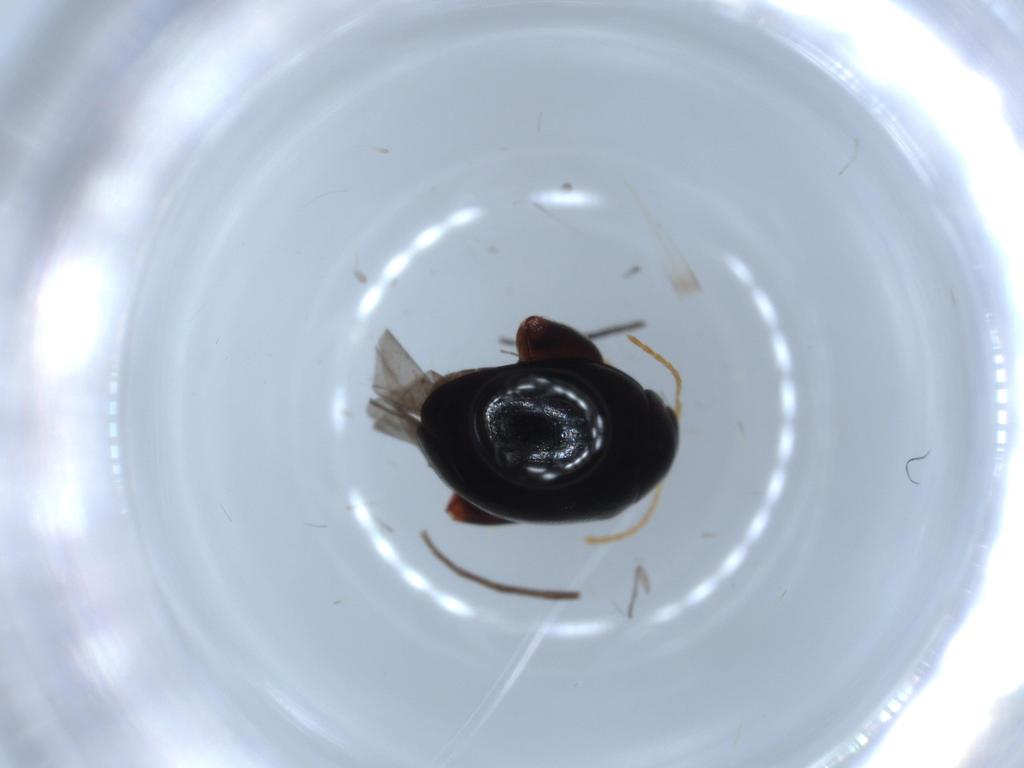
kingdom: Animalia
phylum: Arthropoda
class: Insecta
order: Coleoptera
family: Chrysomelidae
